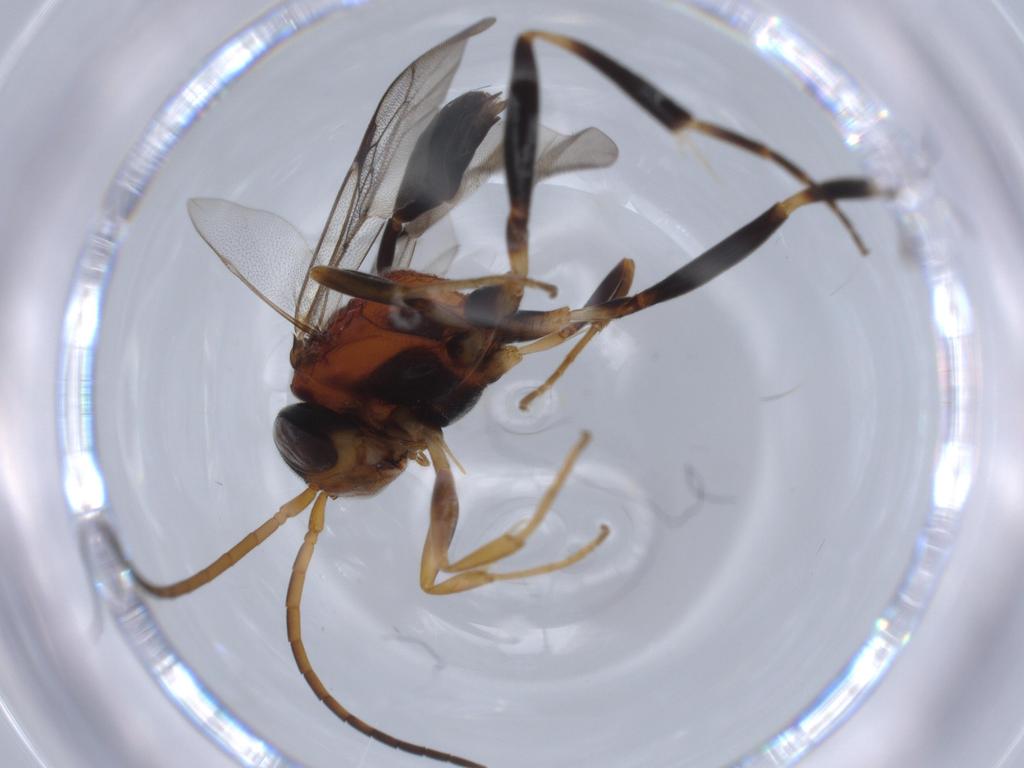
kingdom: Animalia
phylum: Arthropoda
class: Insecta
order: Hymenoptera
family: Evaniidae
